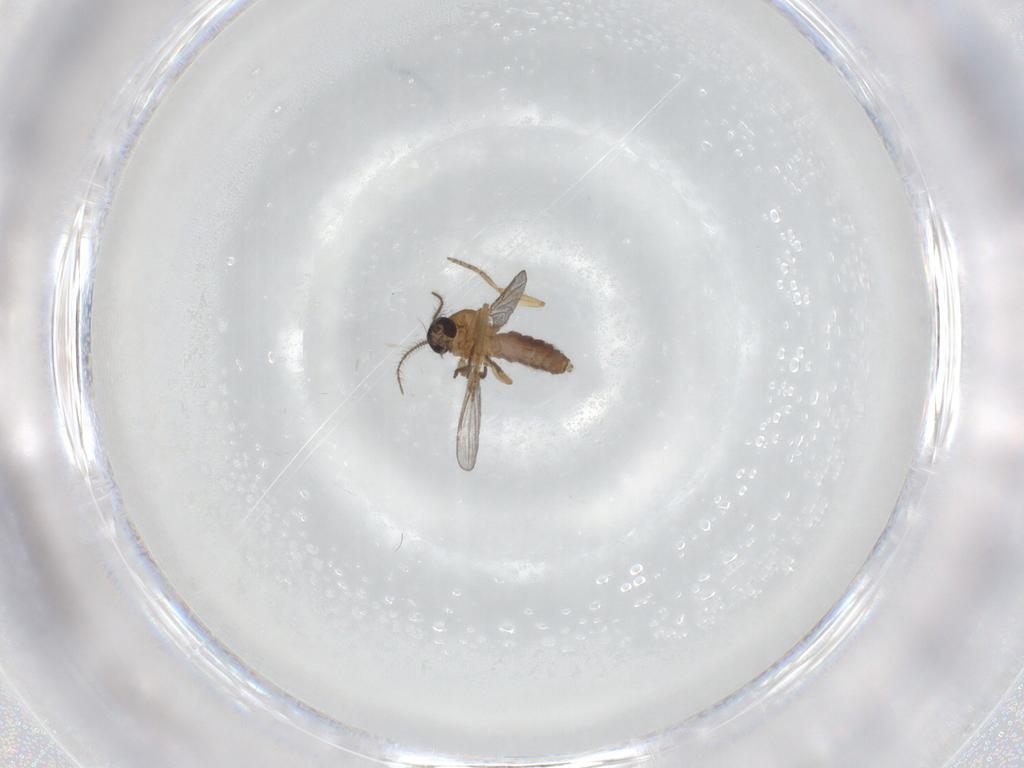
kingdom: Animalia
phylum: Arthropoda
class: Insecta
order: Diptera
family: Ceratopogonidae
